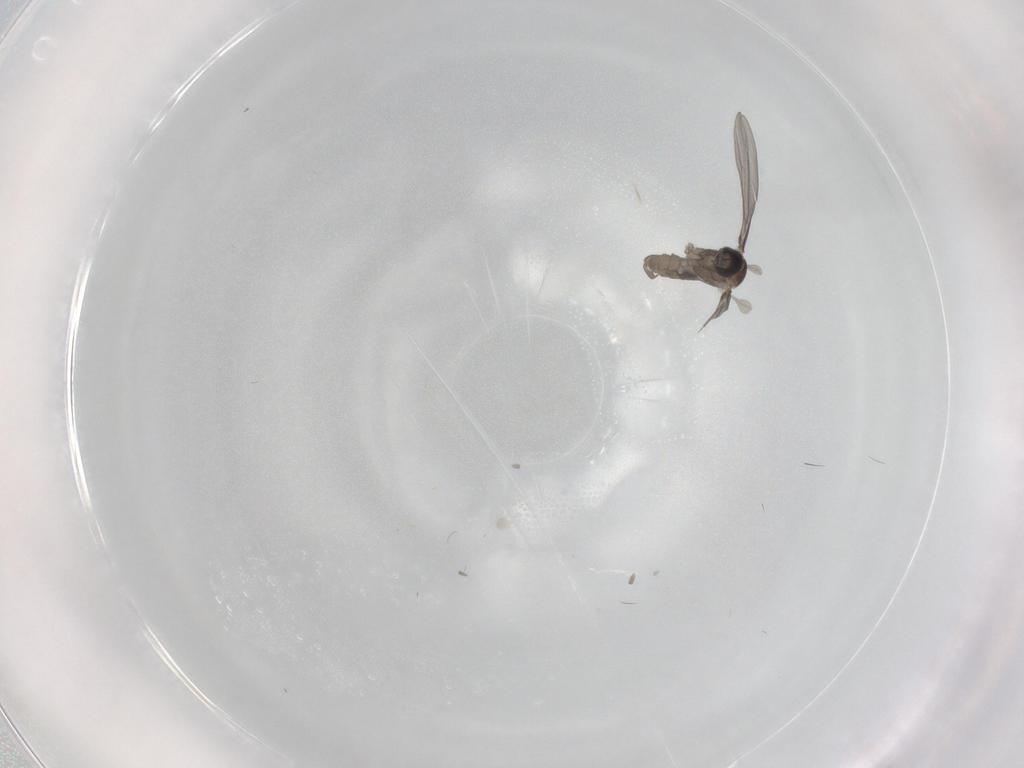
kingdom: Animalia
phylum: Arthropoda
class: Insecta
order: Diptera
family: Cecidomyiidae
